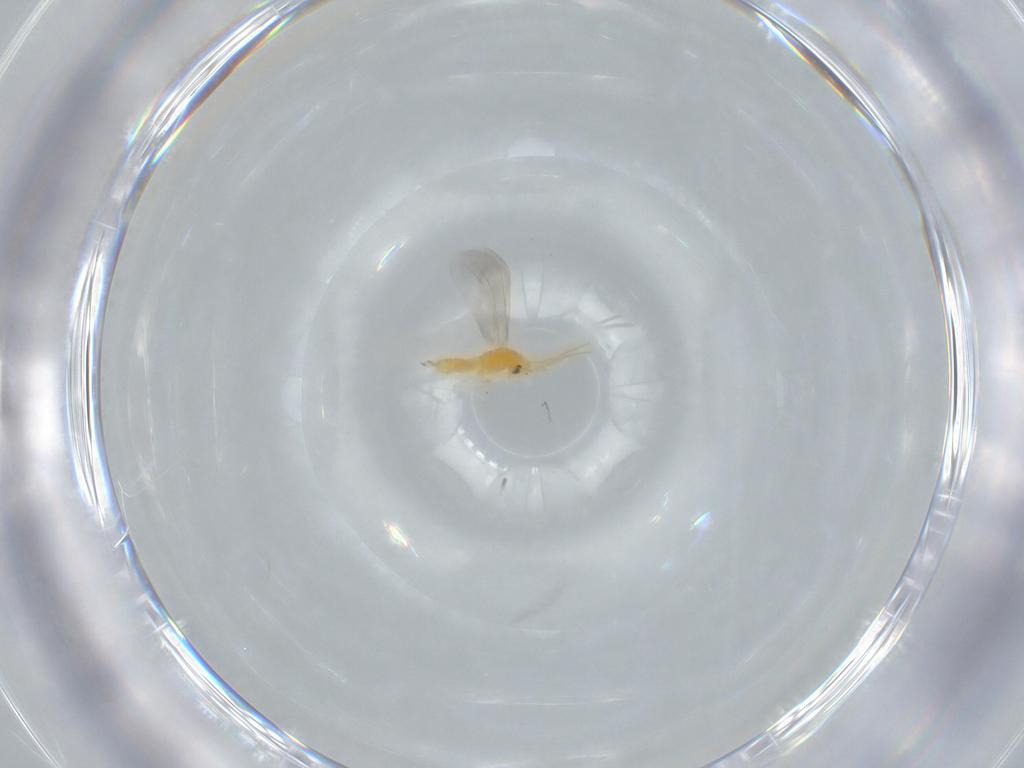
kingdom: Animalia
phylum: Arthropoda
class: Insecta
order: Hemiptera
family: Aleyrodidae
